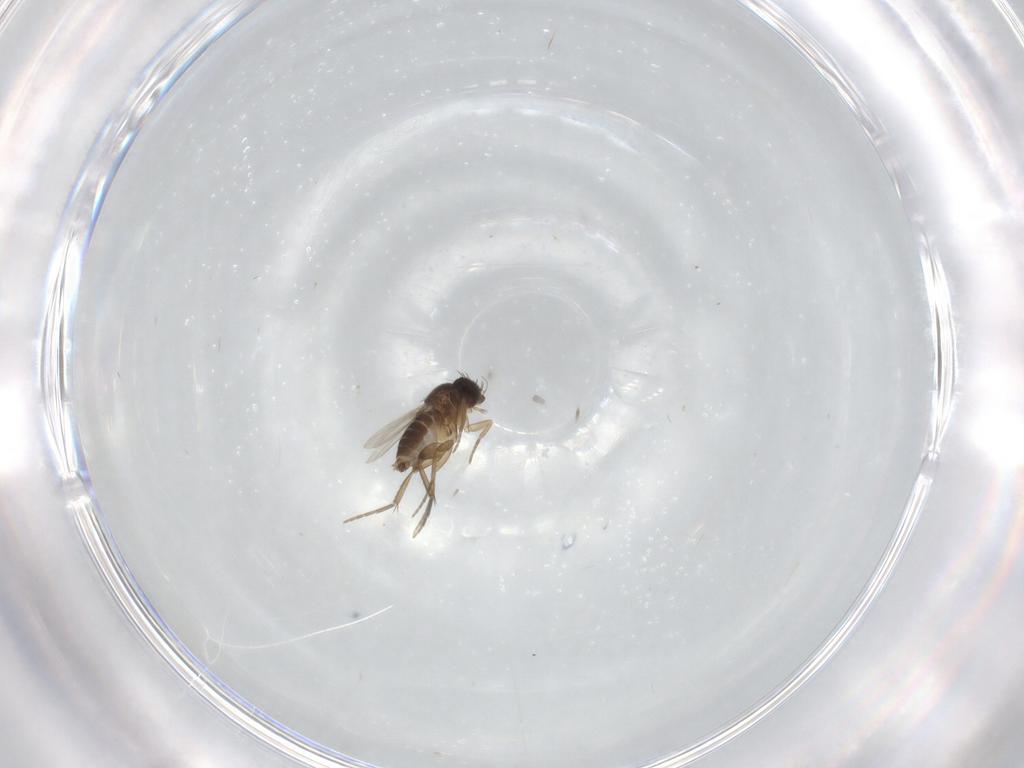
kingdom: Animalia
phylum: Arthropoda
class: Insecta
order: Diptera
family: Phoridae
